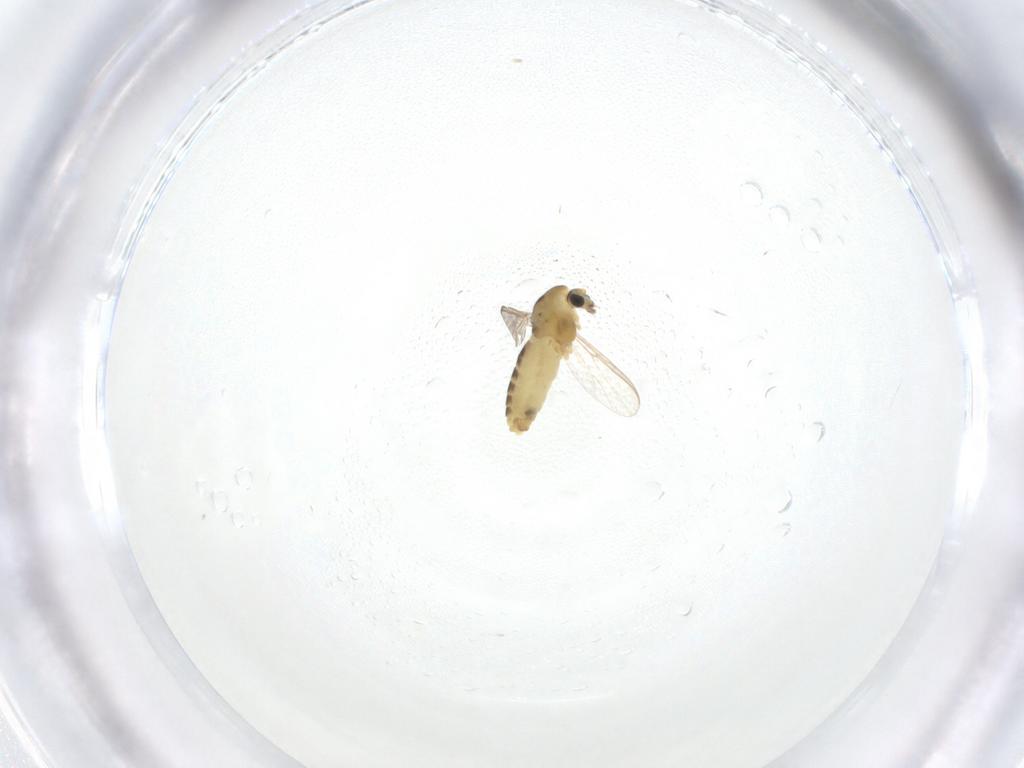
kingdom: Animalia
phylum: Arthropoda
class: Insecta
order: Diptera
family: Chironomidae
